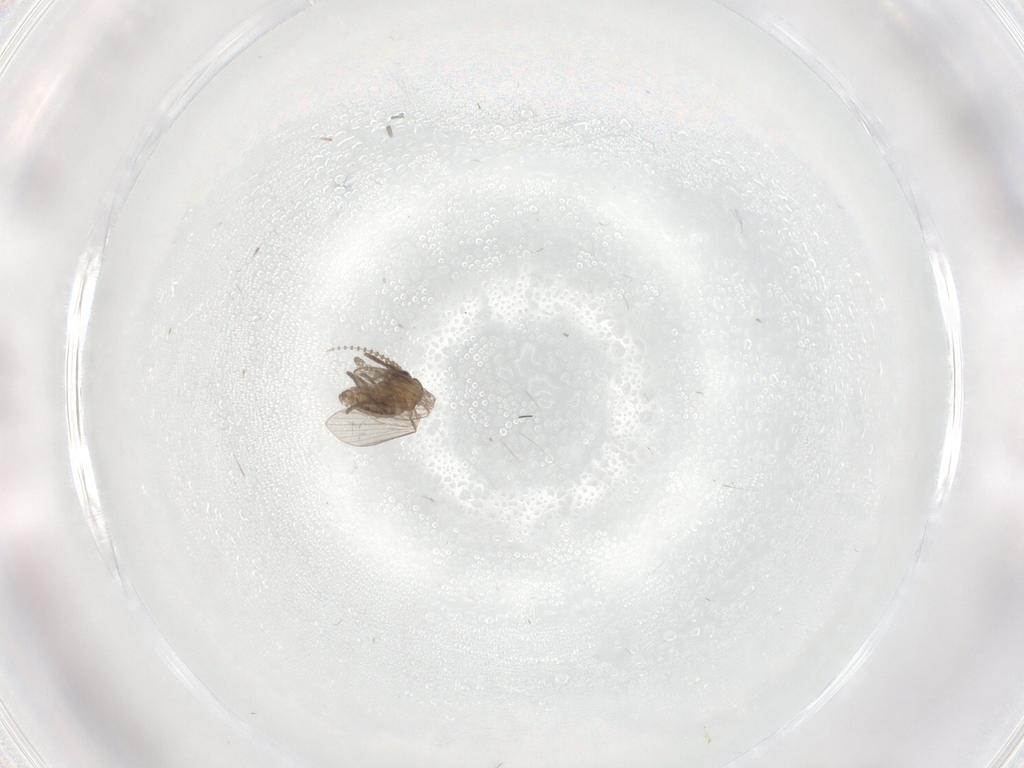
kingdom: Animalia
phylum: Arthropoda
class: Insecta
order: Diptera
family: Psychodidae
